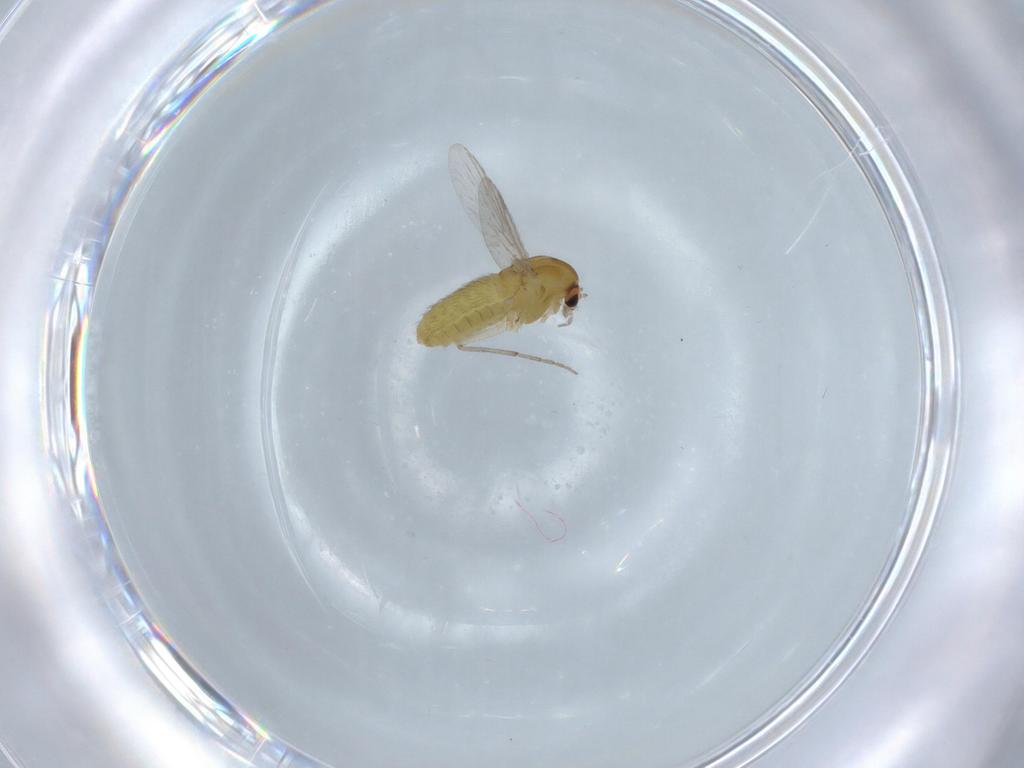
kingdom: Animalia
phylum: Arthropoda
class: Insecta
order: Diptera
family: Chironomidae
